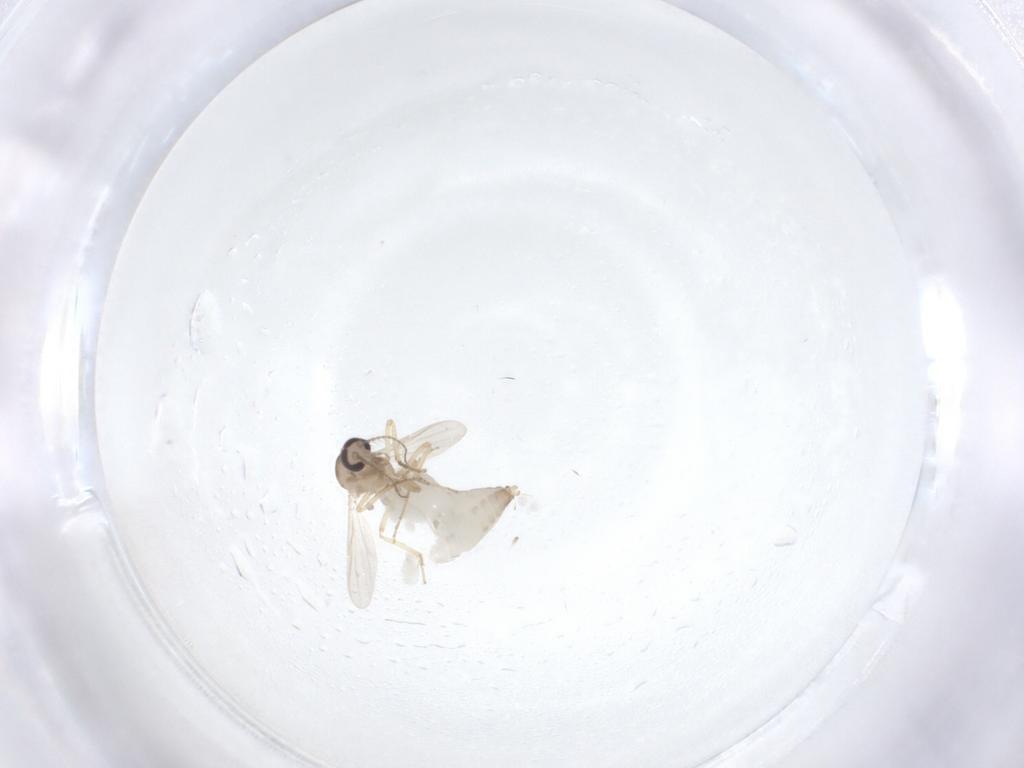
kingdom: Animalia
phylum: Arthropoda
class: Insecta
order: Diptera
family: Ceratopogonidae
